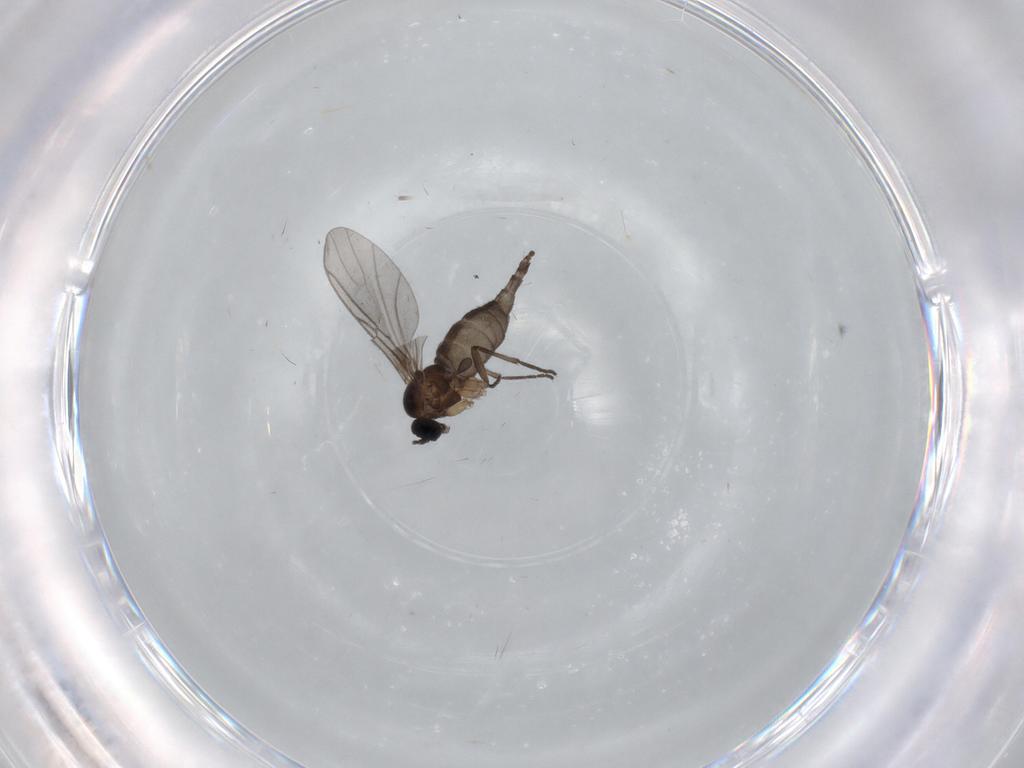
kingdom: Animalia
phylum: Arthropoda
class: Insecta
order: Diptera
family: Sciaridae
